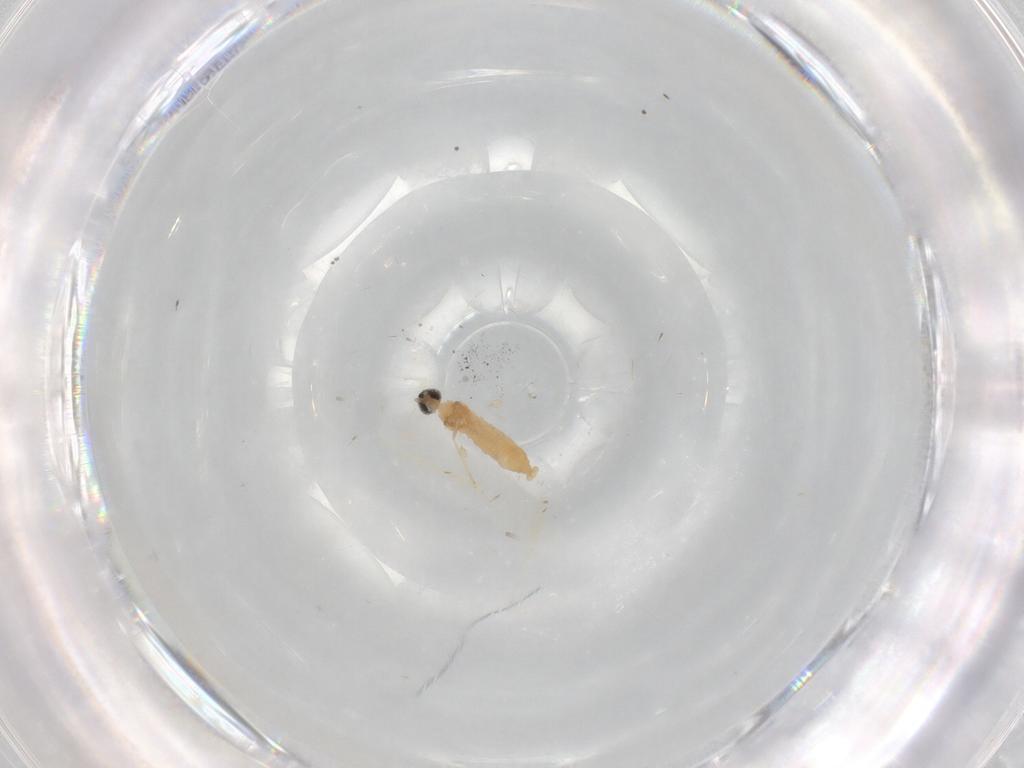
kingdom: Animalia
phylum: Arthropoda
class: Insecta
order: Diptera
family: Cecidomyiidae
